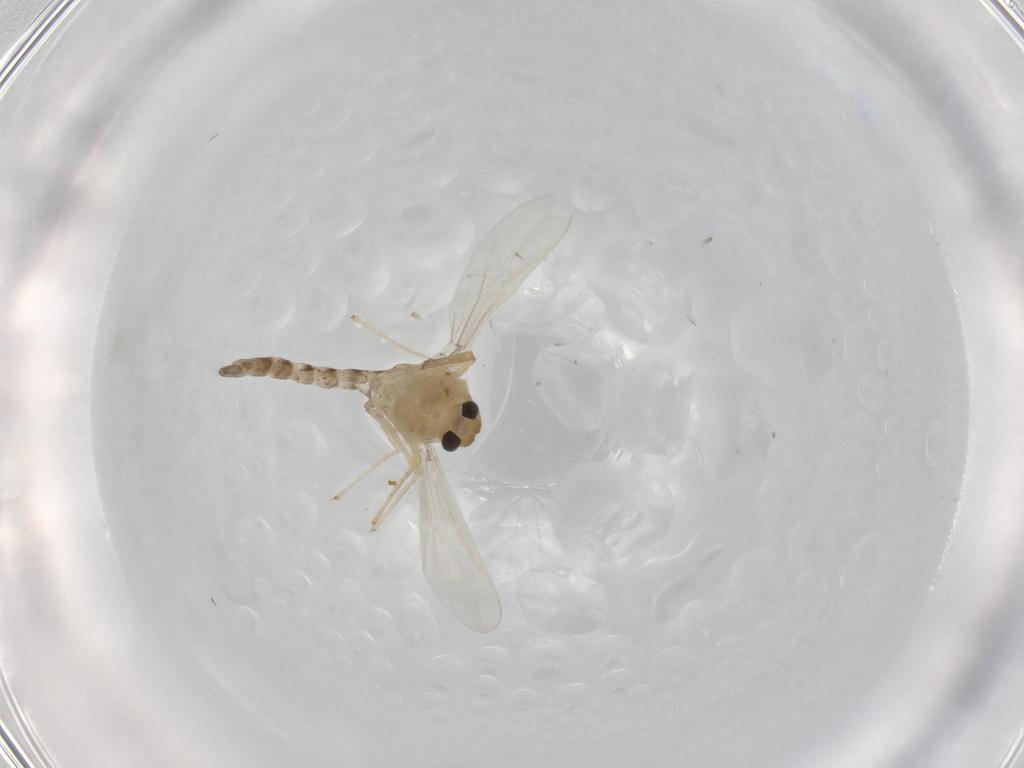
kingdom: Animalia
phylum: Arthropoda
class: Insecta
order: Diptera
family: Chironomidae
